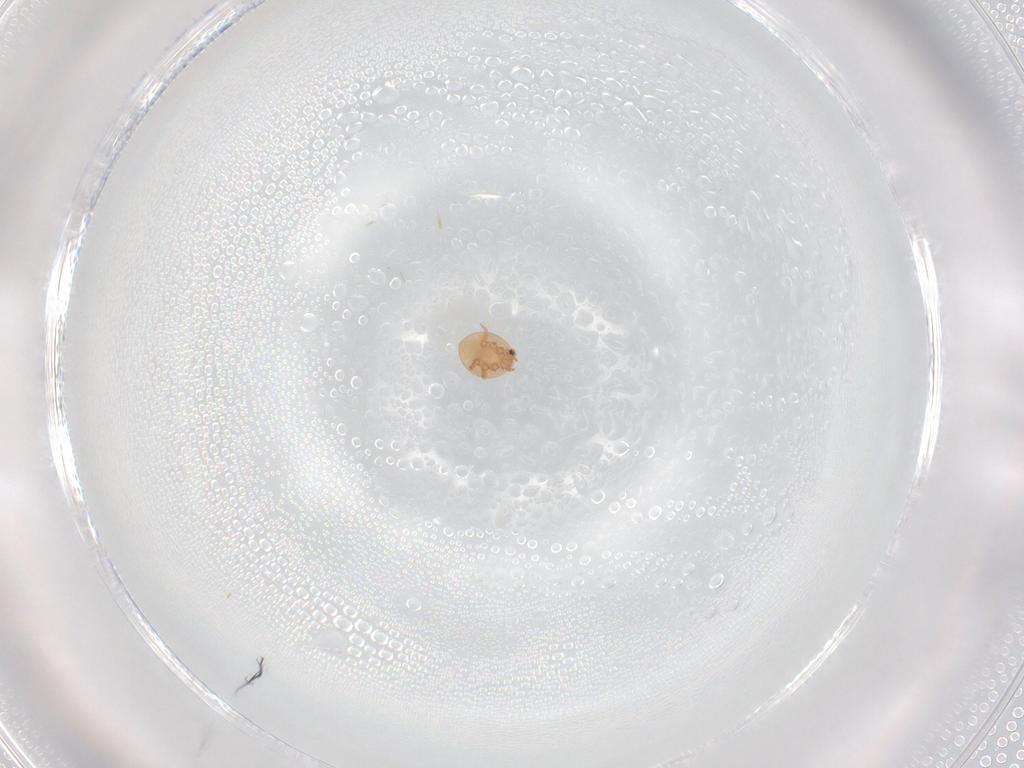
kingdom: Animalia
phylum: Arthropoda
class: Arachnida
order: Mesostigmata
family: Trematuridae
